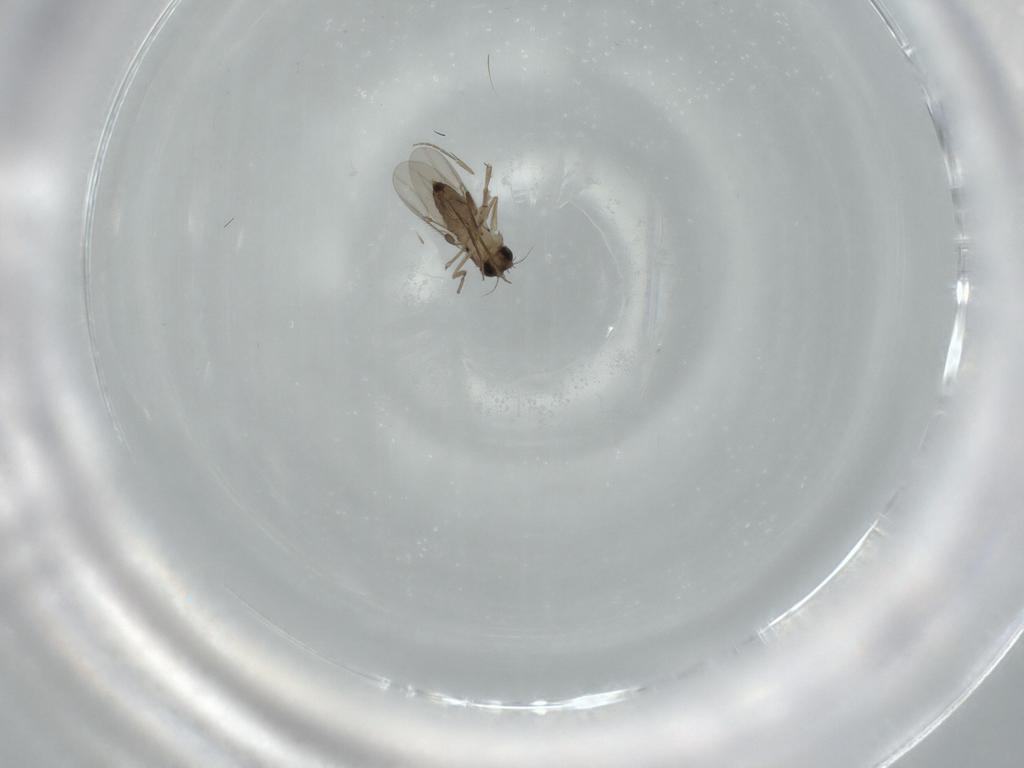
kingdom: Animalia
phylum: Arthropoda
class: Insecta
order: Diptera
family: Phoridae
